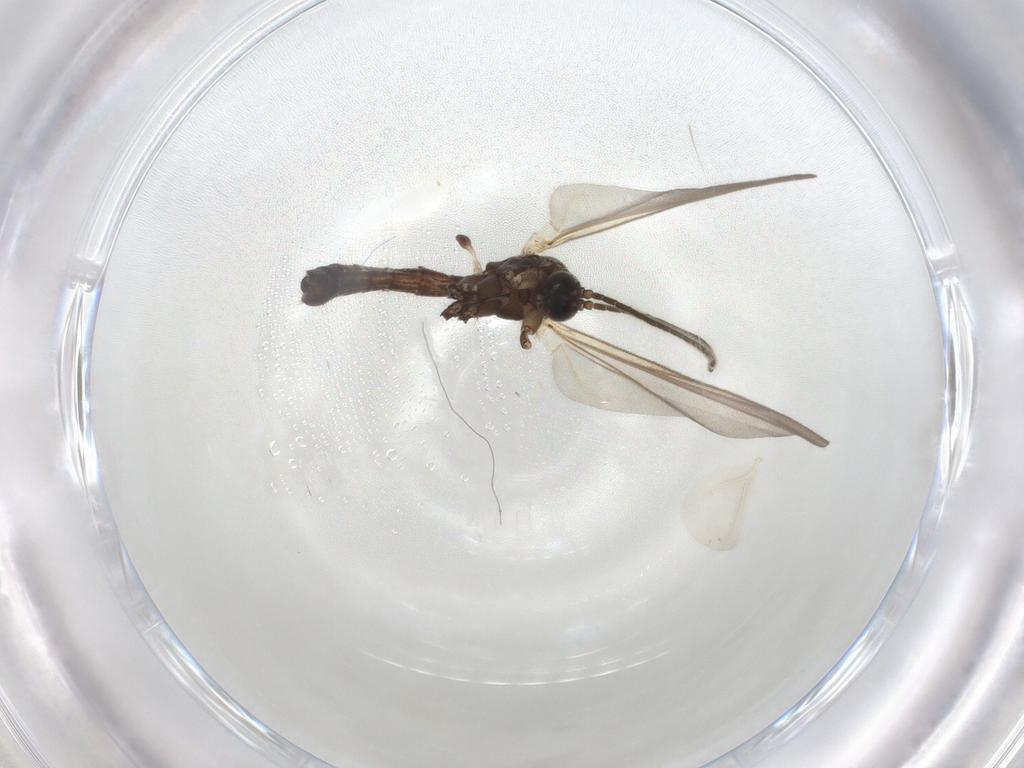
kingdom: Animalia
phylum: Arthropoda
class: Insecta
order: Diptera
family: Mycetophilidae
